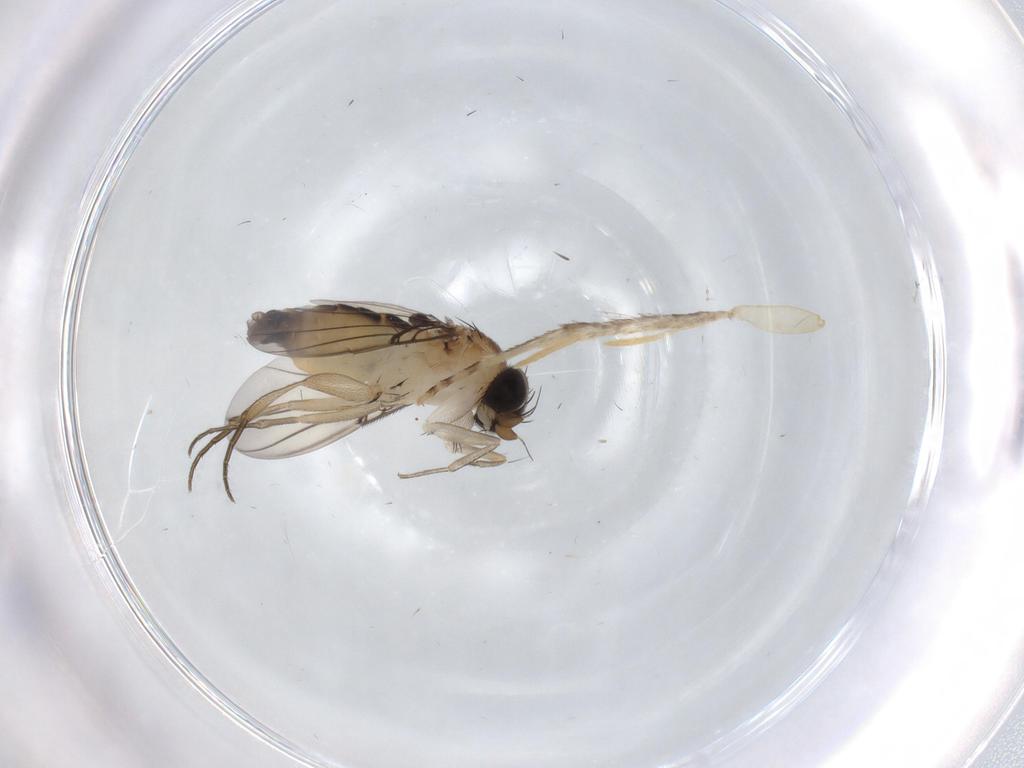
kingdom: Animalia
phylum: Arthropoda
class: Insecta
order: Diptera
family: Phoridae
